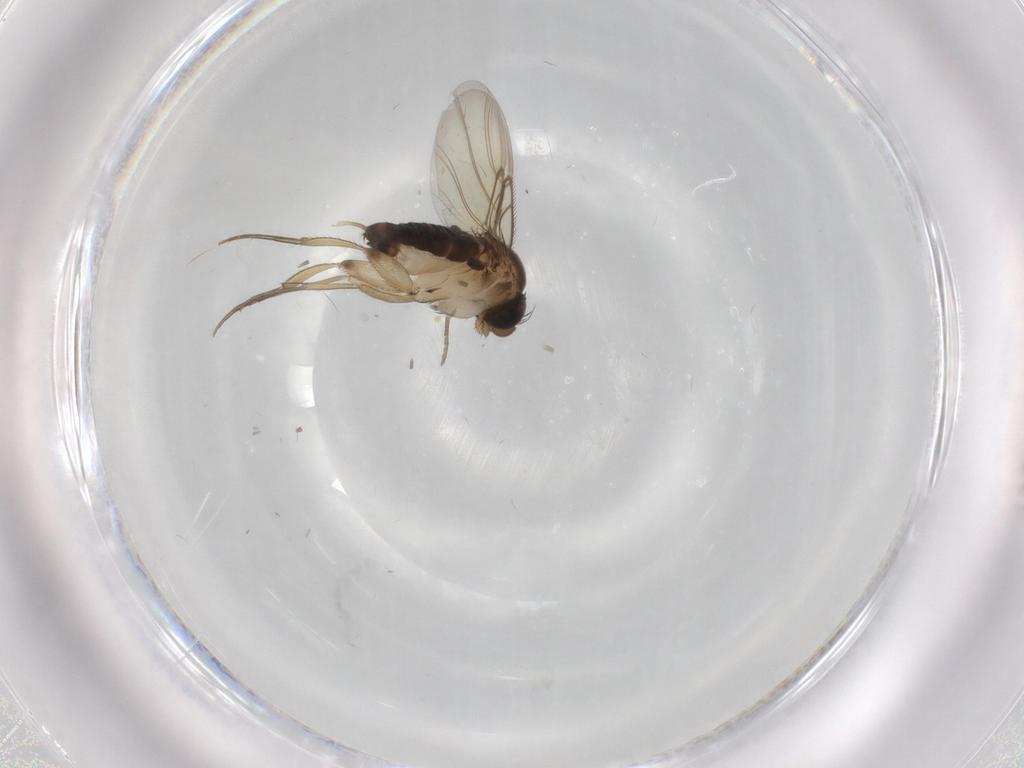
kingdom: Animalia
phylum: Arthropoda
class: Insecta
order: Diptera
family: Phoridae
